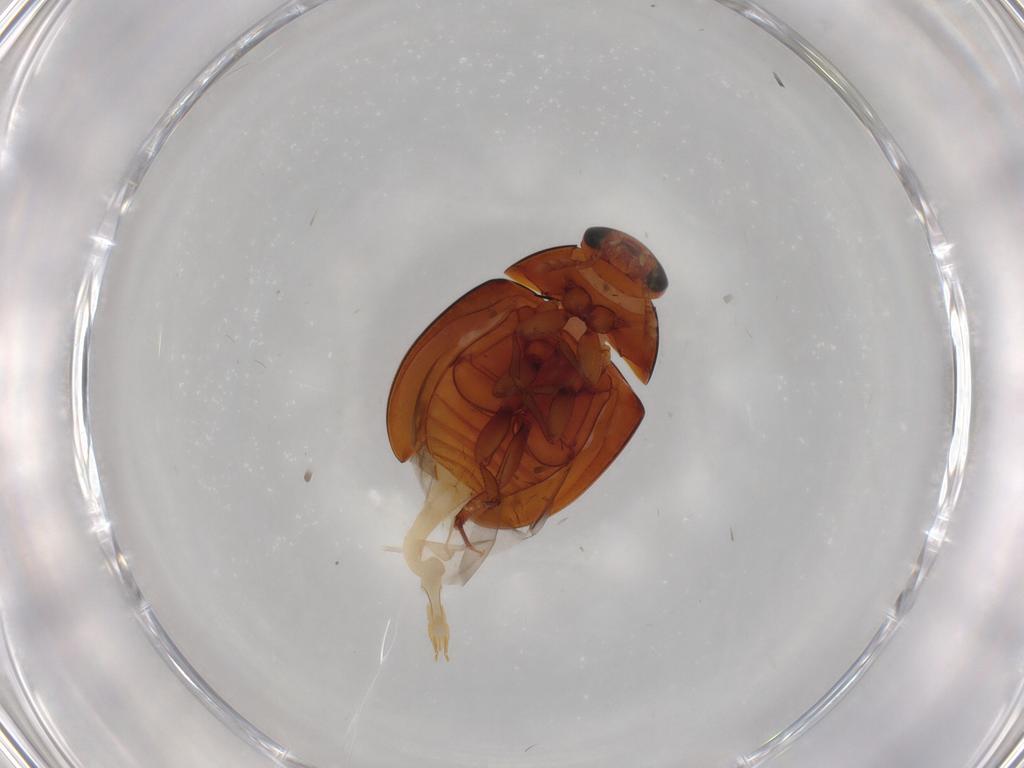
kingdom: Animalia
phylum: Arthropoda
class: Insecta
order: Coleoptera
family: Phalacridae
